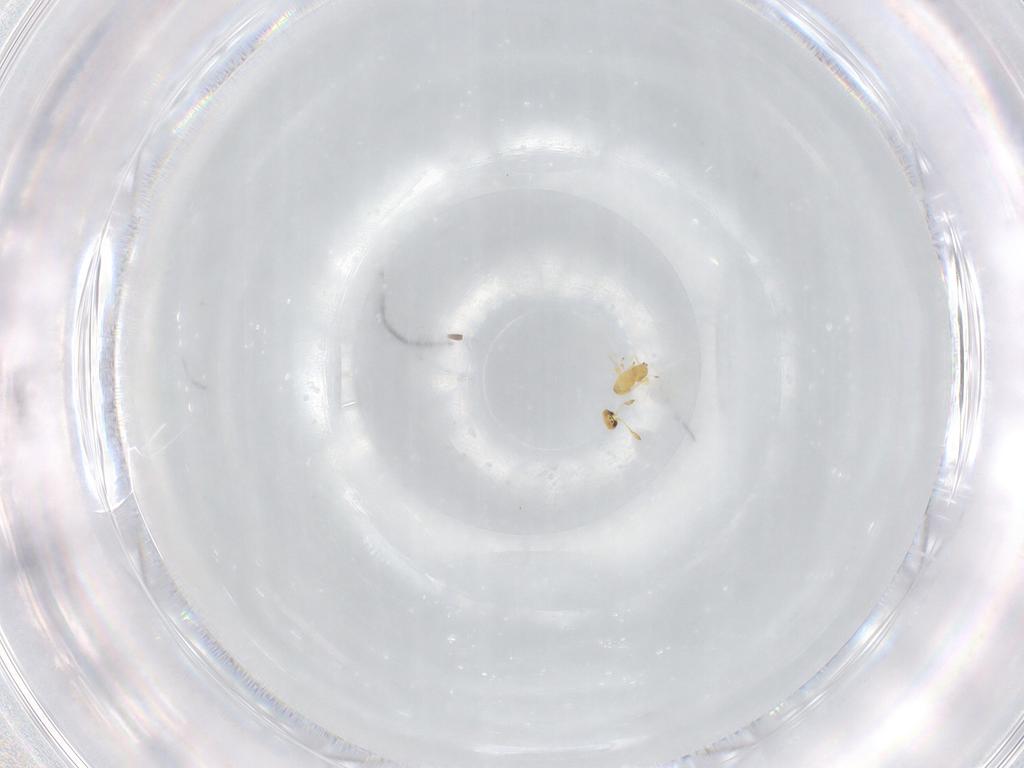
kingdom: Animalia
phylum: Arthropoda
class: Insecta
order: Hymenoptera
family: Mymaridae
